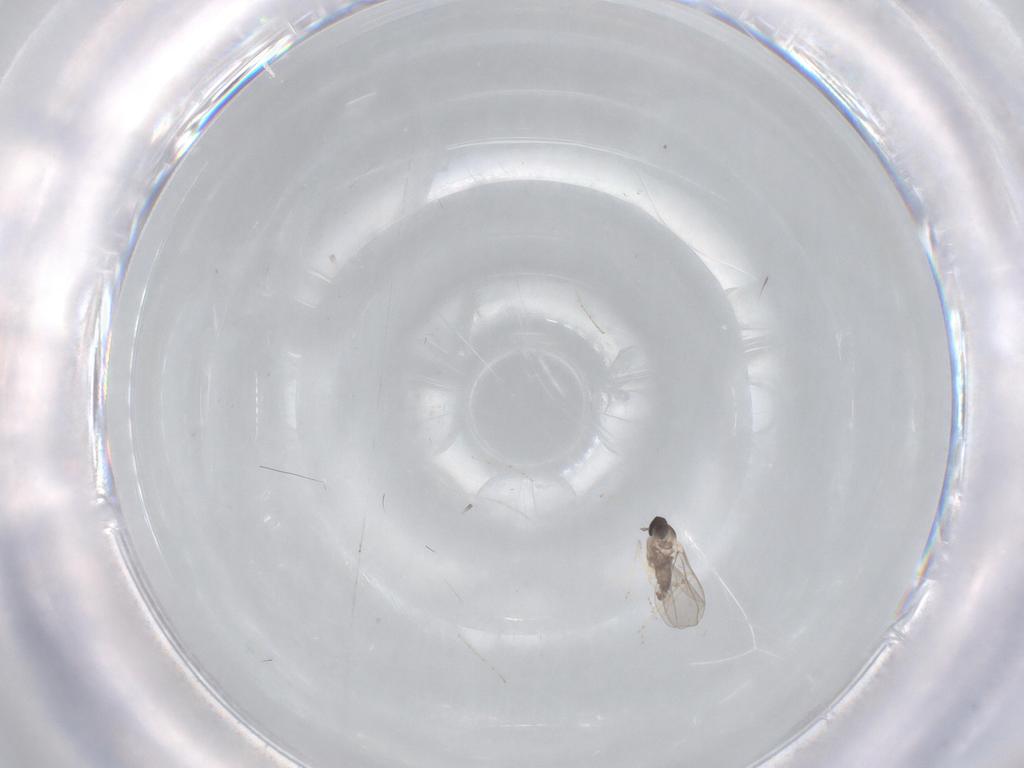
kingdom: Animalia
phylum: Arthropoda
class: Insecta
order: Diptera
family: Cecidomyiidae
